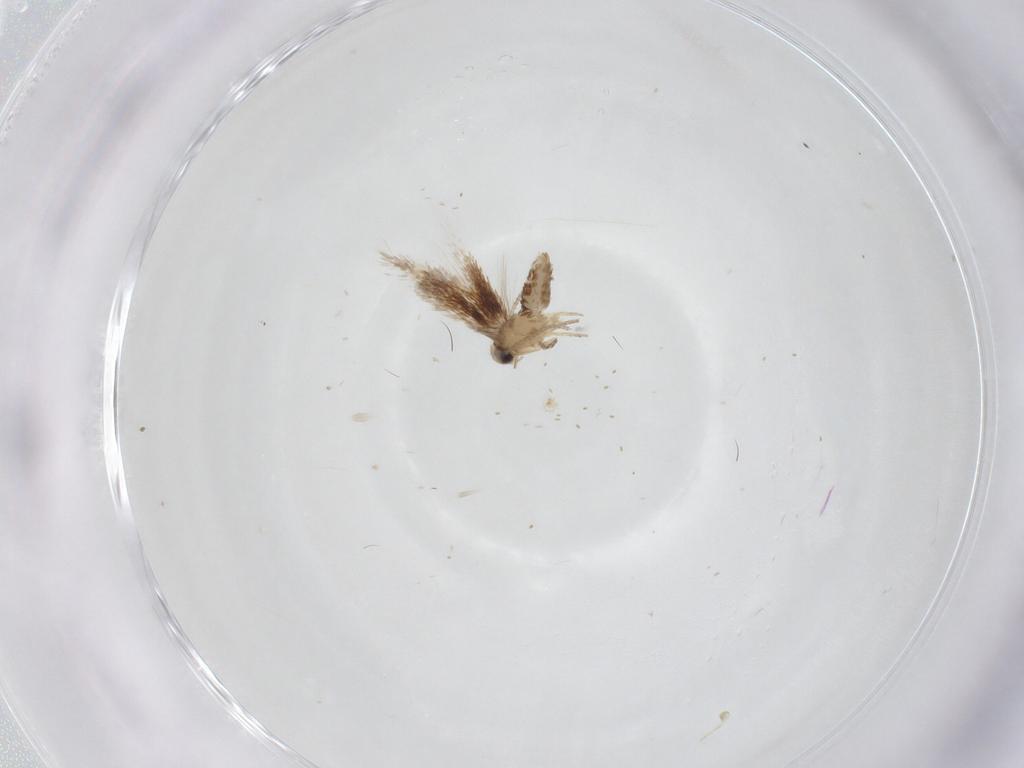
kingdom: Animalia
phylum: Arthropoda
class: Insecta
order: Lepidoptera
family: Nepticulidae
